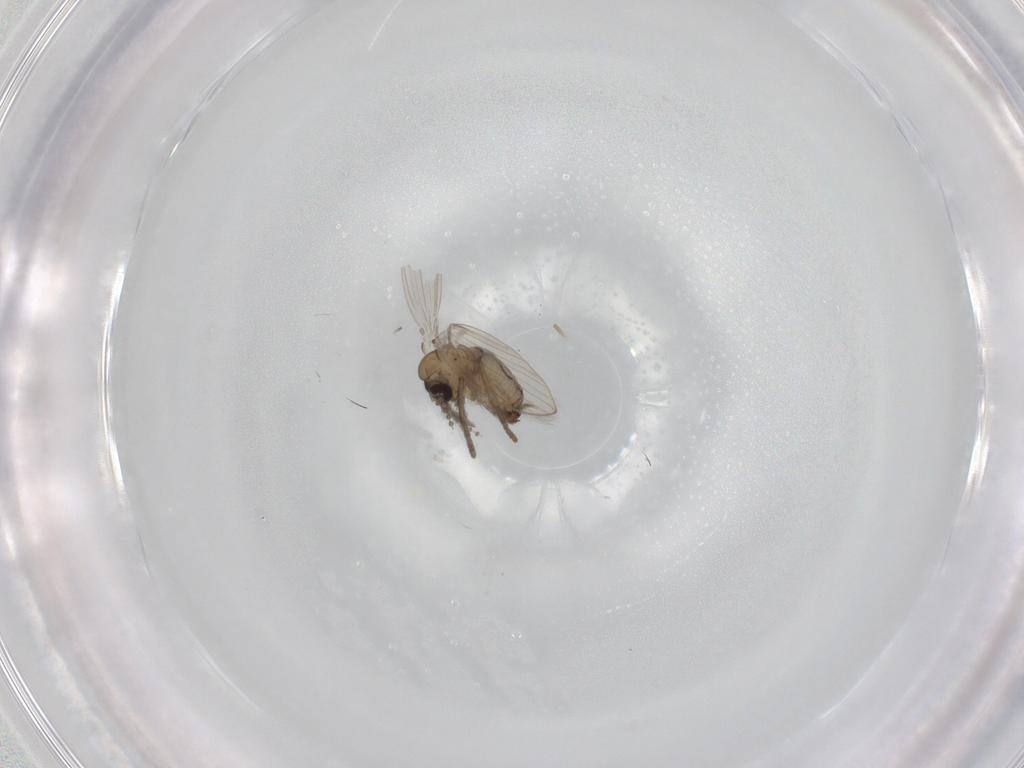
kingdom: Animalia
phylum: Arthropoda
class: Insecta
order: Diptera
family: Psychodidae
